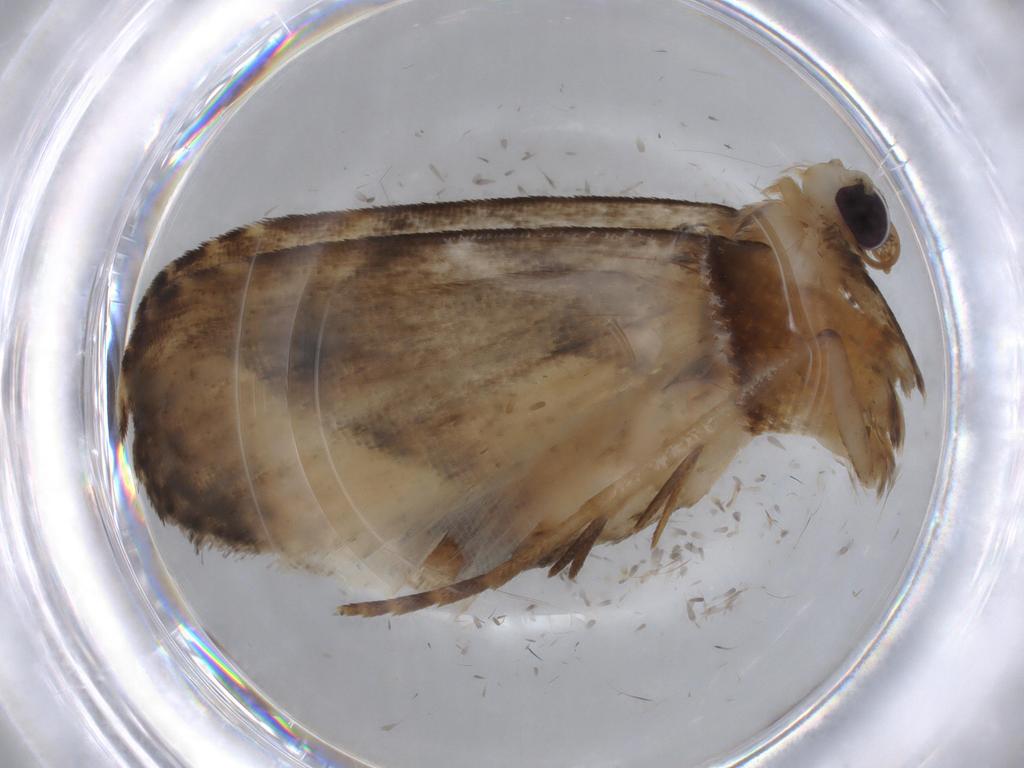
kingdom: Animalia
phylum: Arthropoda
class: Insecta
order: Lepidoptera
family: Noctuidae
